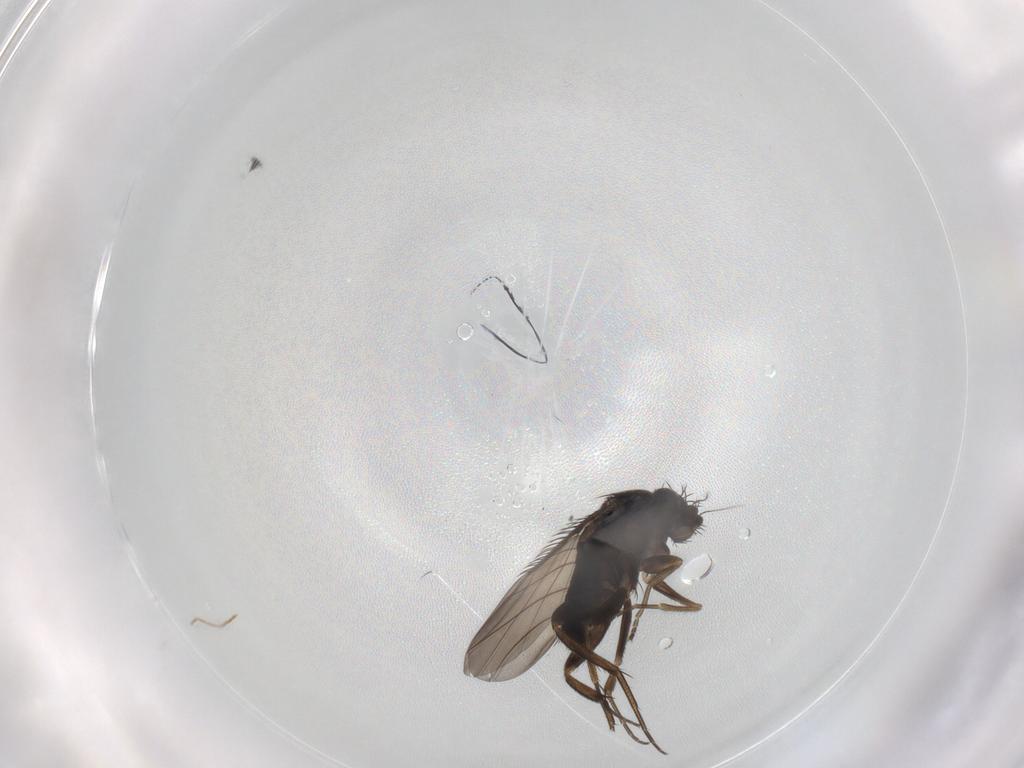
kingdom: Animalia
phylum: Arthropoda
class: Insecta
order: Diptera
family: Phoridae
